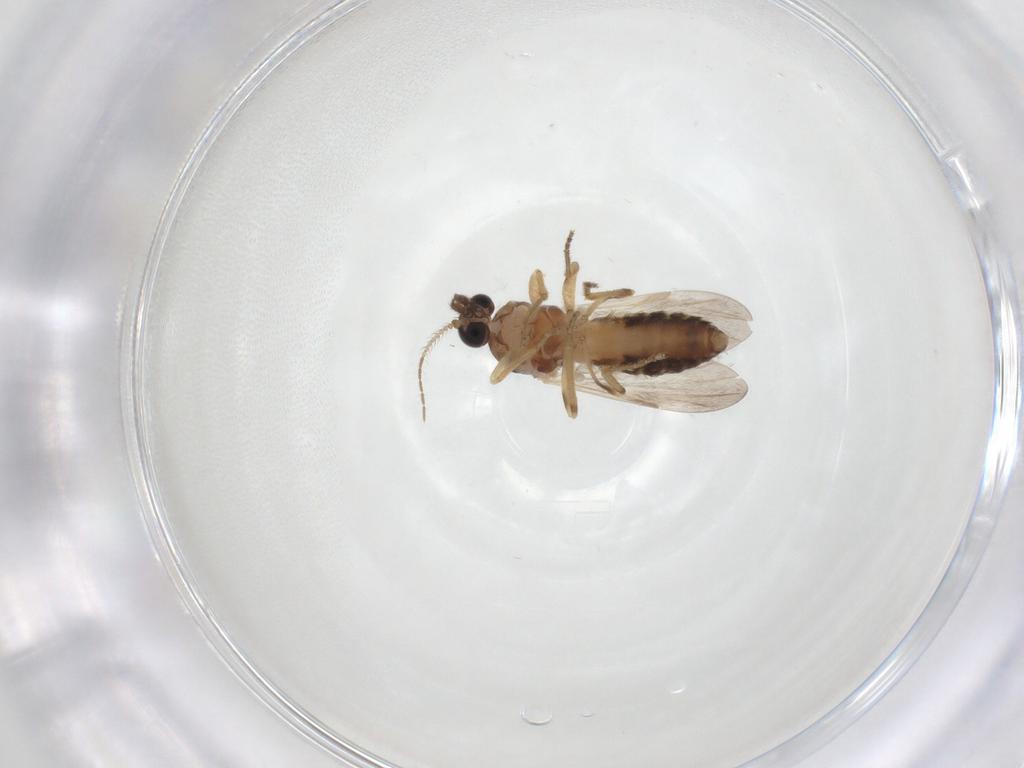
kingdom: Animalia
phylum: Arthropoda
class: Insecta
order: Diptera
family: Ceratopogonidae
